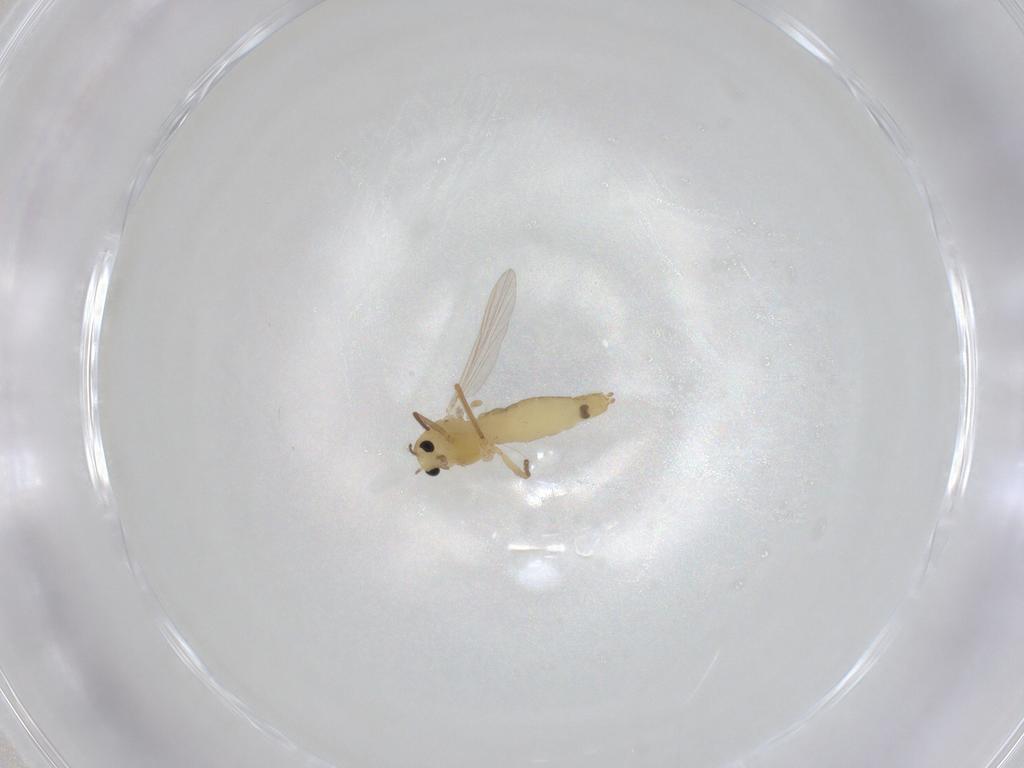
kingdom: Animalia
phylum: Arthropoda
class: Insecta
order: Diptera
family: Chironomidae
